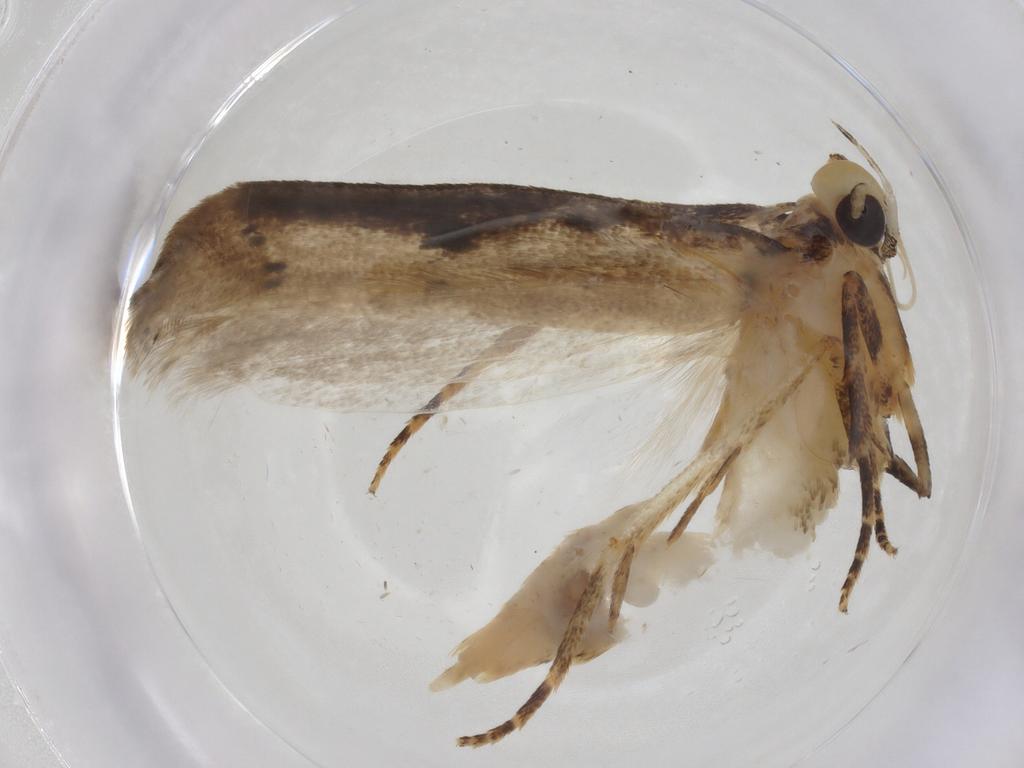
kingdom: Animalia
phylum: Arthropoda
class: Insecta
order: Lepidoptera
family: Gelechiidae
